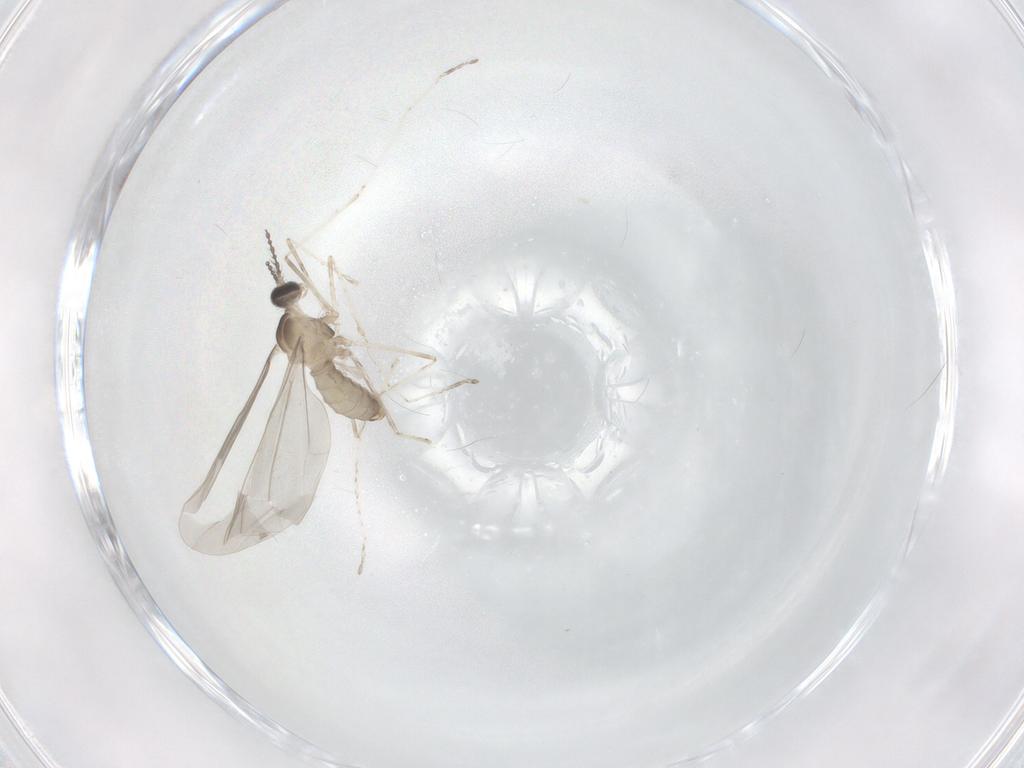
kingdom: Animalia
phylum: Arthropoda
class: Insecta
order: Diptera
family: Cecidomyiidae
